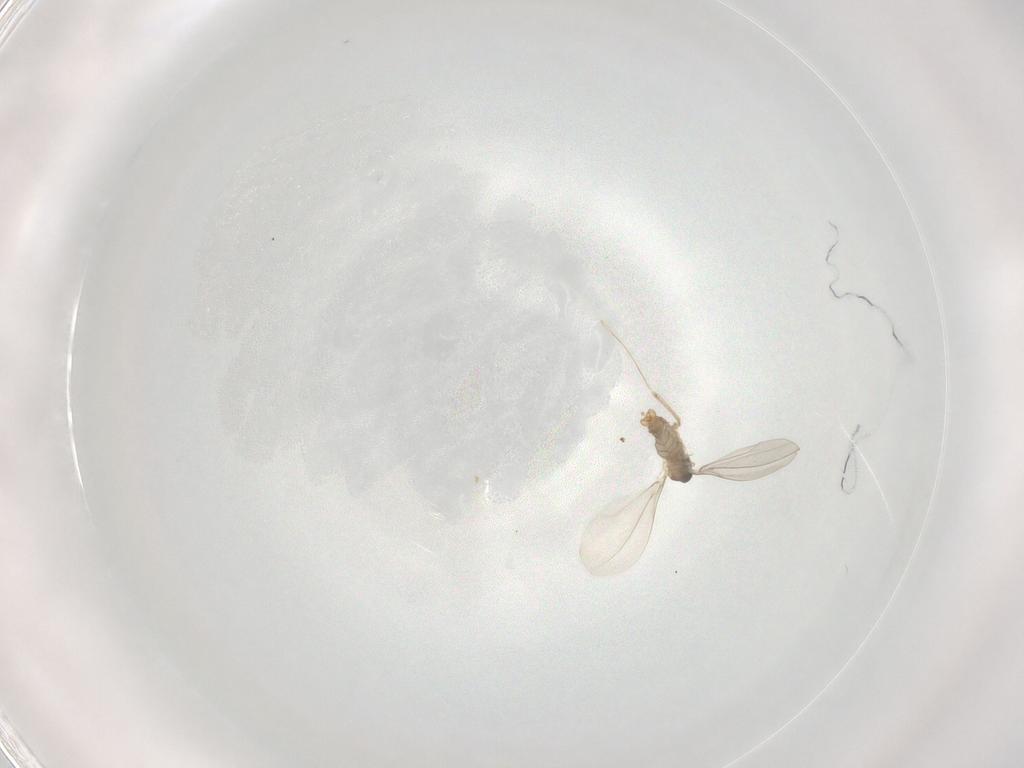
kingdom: Animalia
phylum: Arthropoda
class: Insecta
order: Diptera
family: Cecidomyiidae
